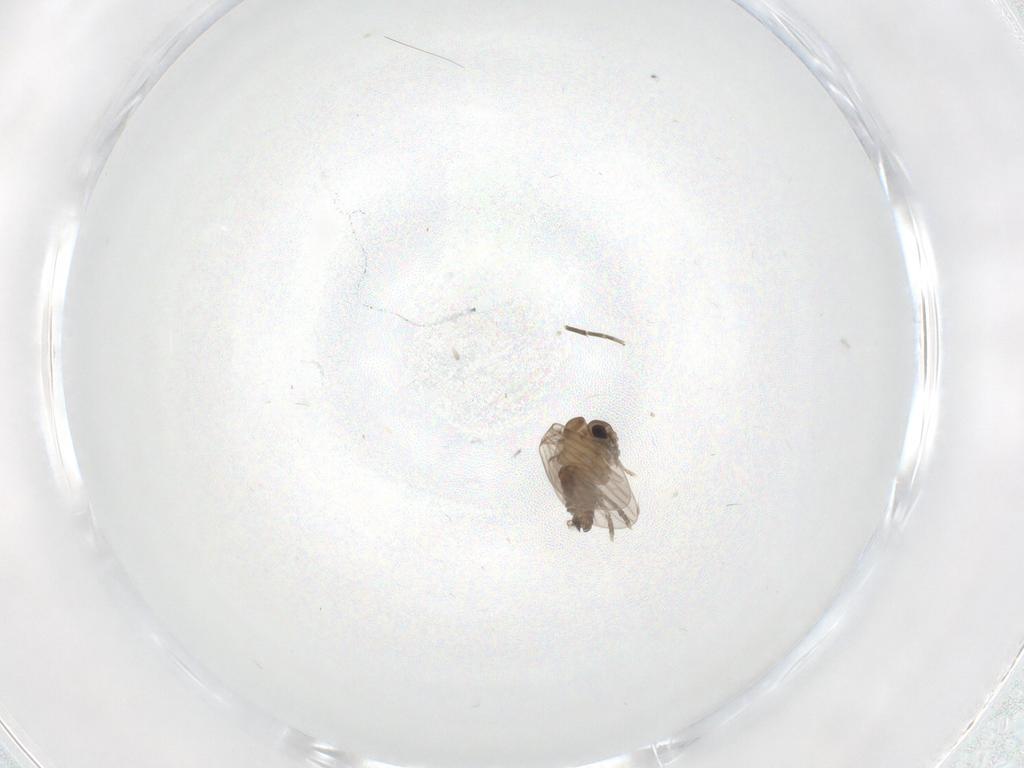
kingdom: Animalia
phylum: Arthropoda
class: Insecta
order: Diptera
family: Phoridae
